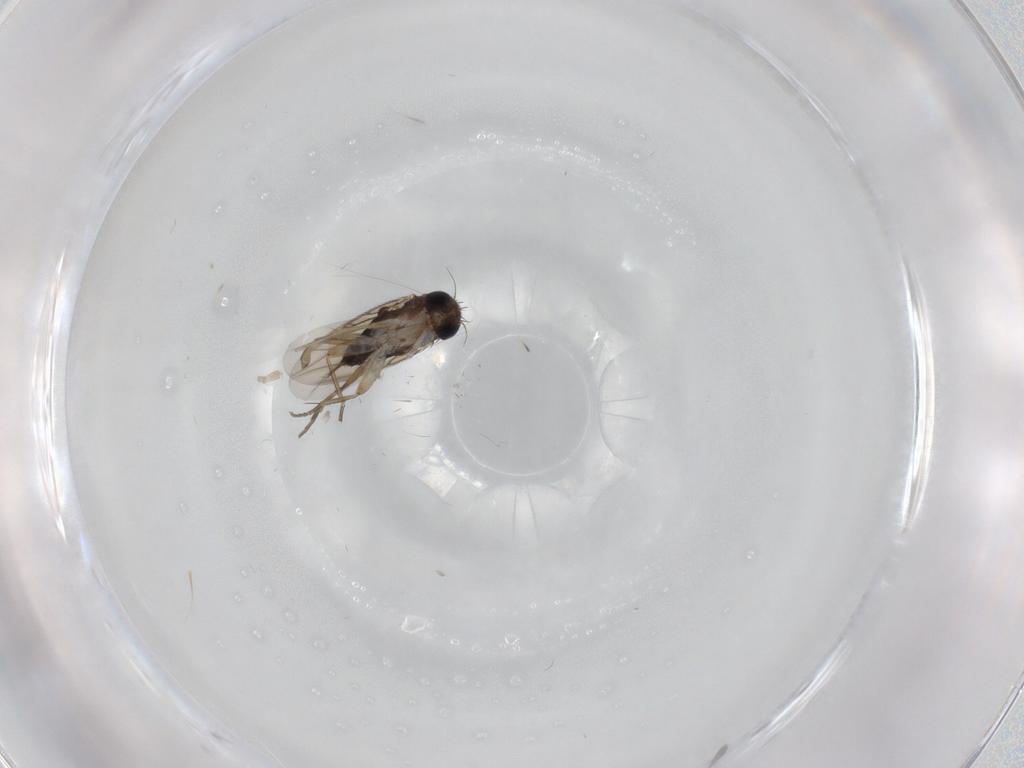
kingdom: Animalia
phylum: Arthropoda
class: Insecta
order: Diptera
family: Phoridae
